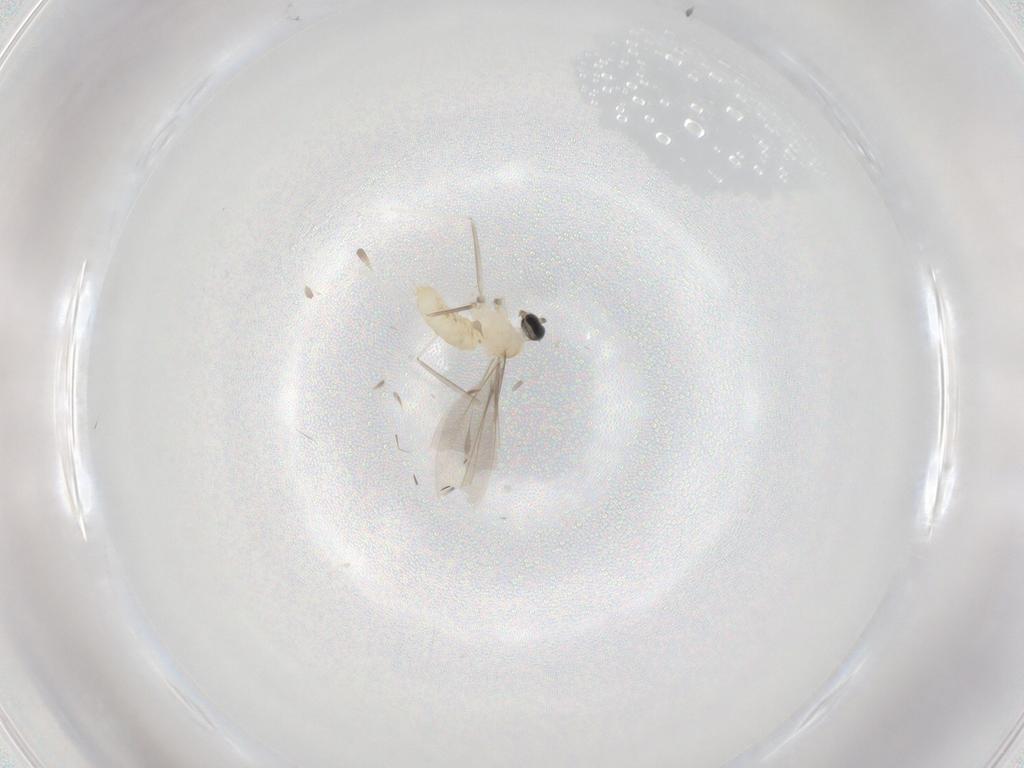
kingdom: Animalia
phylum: Arthropoda
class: Insecta
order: Diptera
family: Cecidomyiidae
